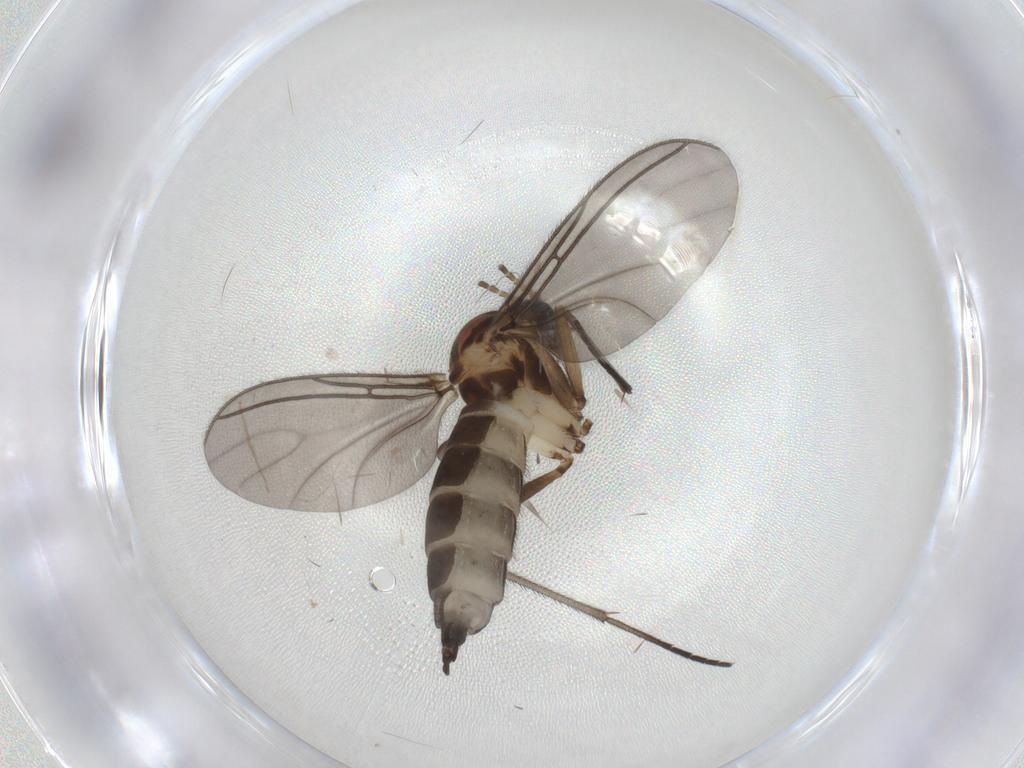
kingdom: Animalia
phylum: Arthropoda
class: Insecta
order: Diptera
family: Sciaridae
